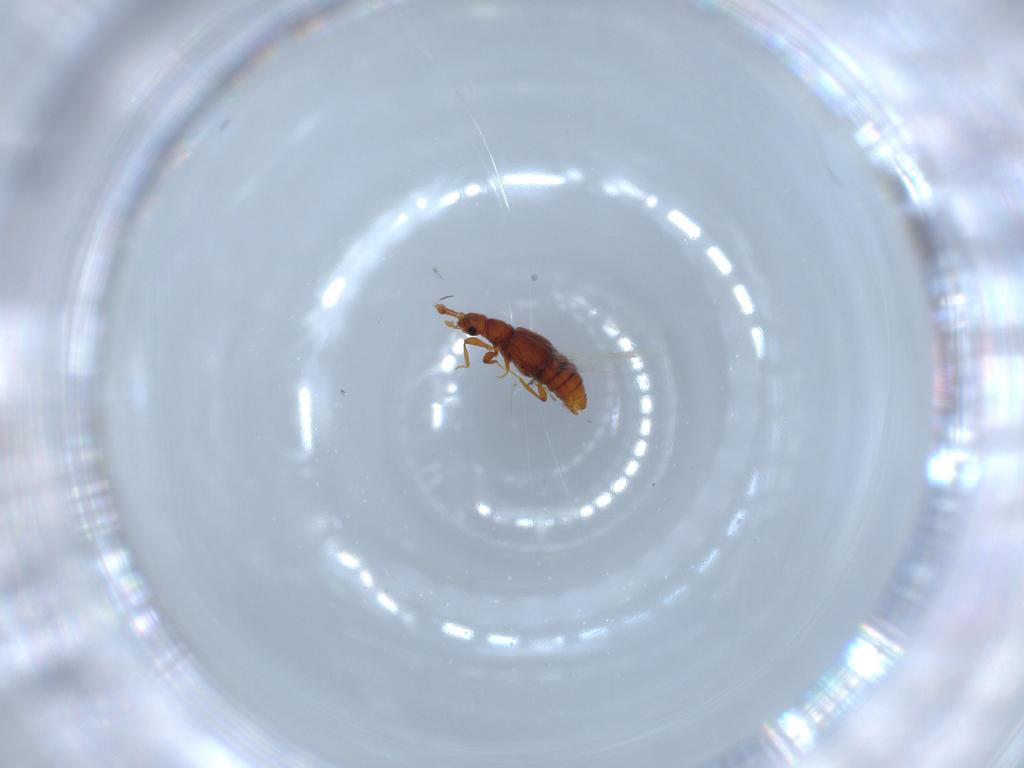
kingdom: Animalia
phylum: Arthropoda
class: Insecta
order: Coleoptera
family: Staphylinidae
